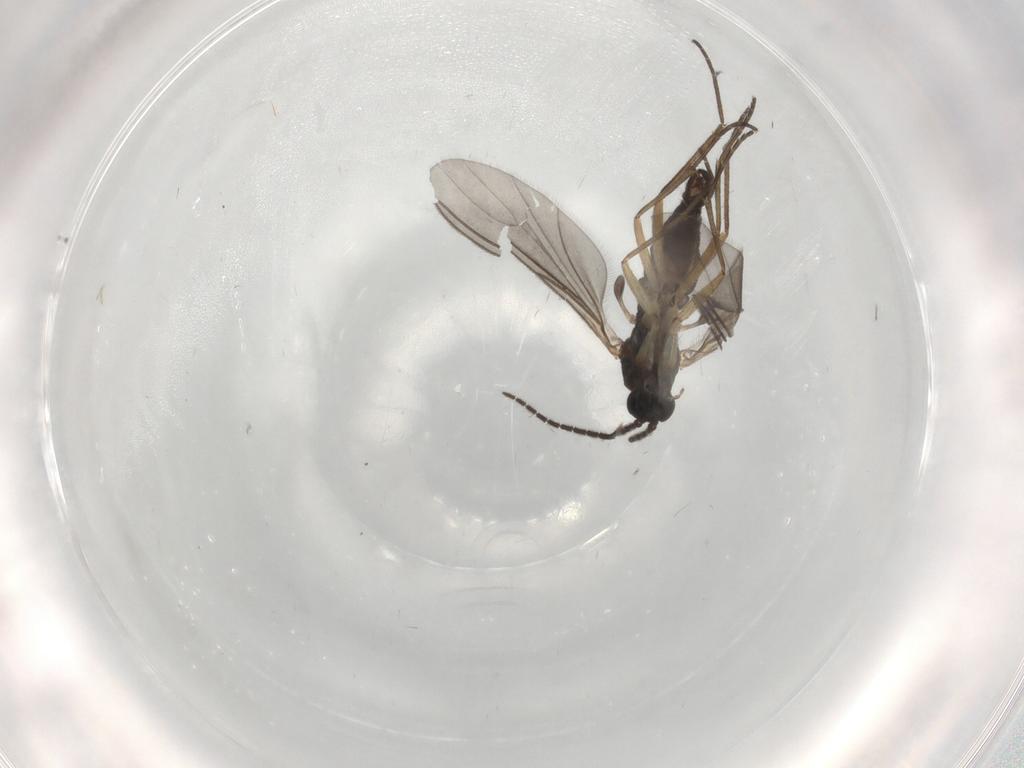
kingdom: Animalia
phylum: Arthropoda
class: Insecta
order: Diptera
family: Sciaridae
